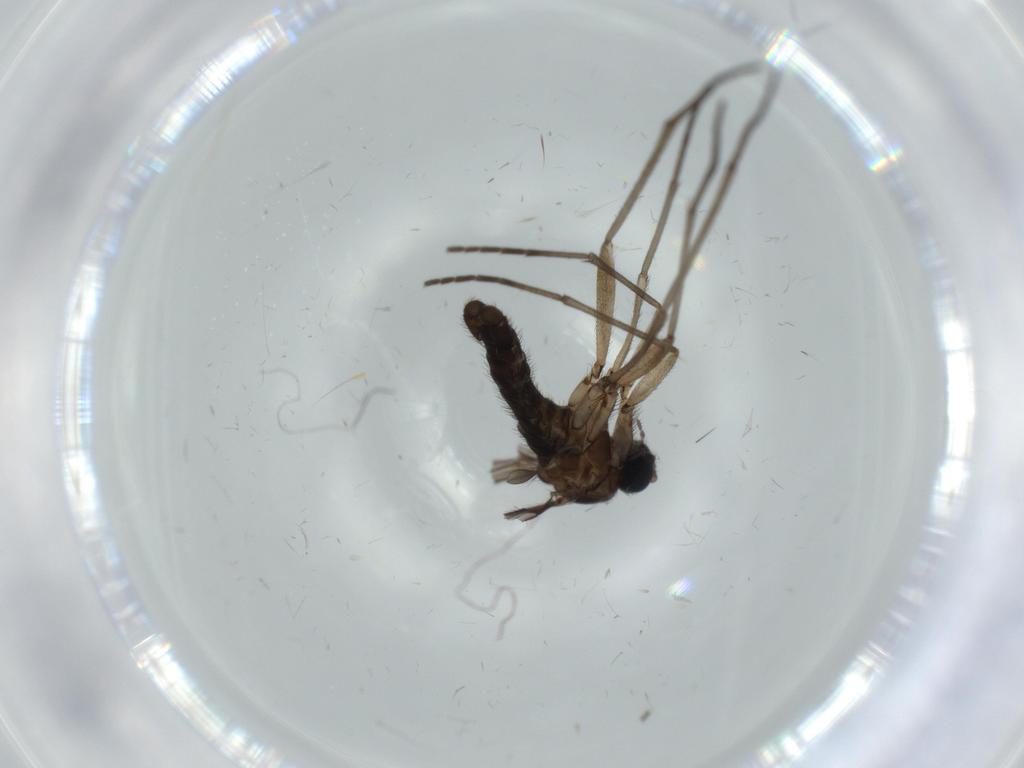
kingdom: Animalia
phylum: Arthropoda
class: Insecta
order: Diptera
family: Sciaridae
